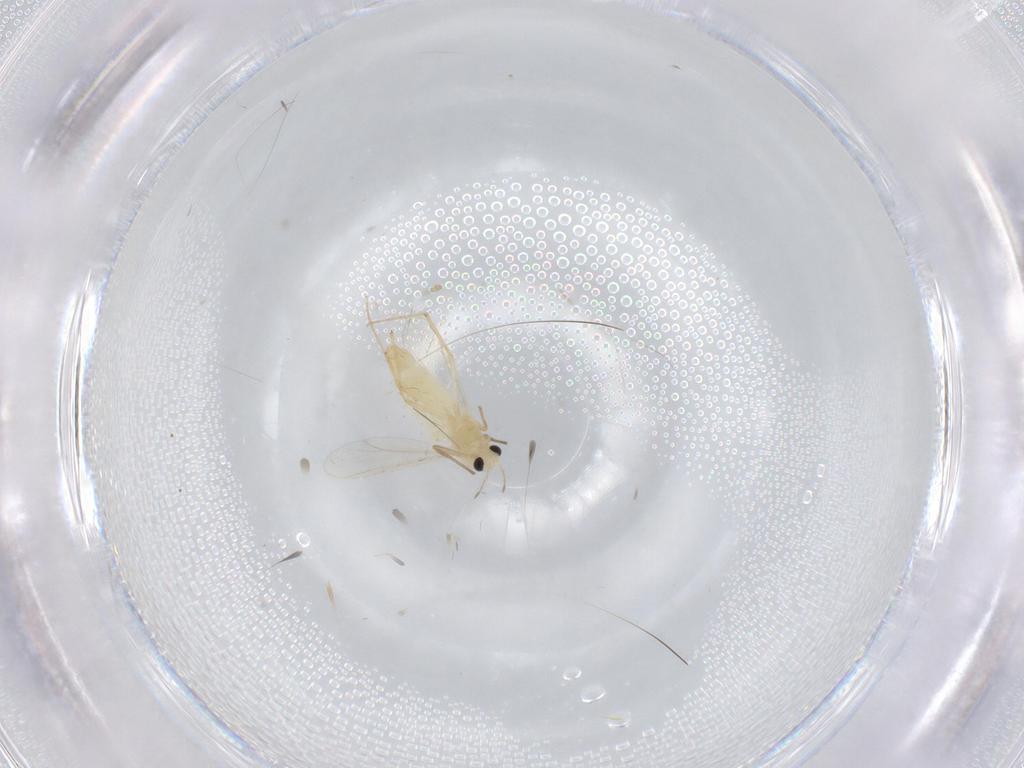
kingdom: Animalia
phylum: Arthropoda
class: Insecta
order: Diptera
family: Chironomidae
